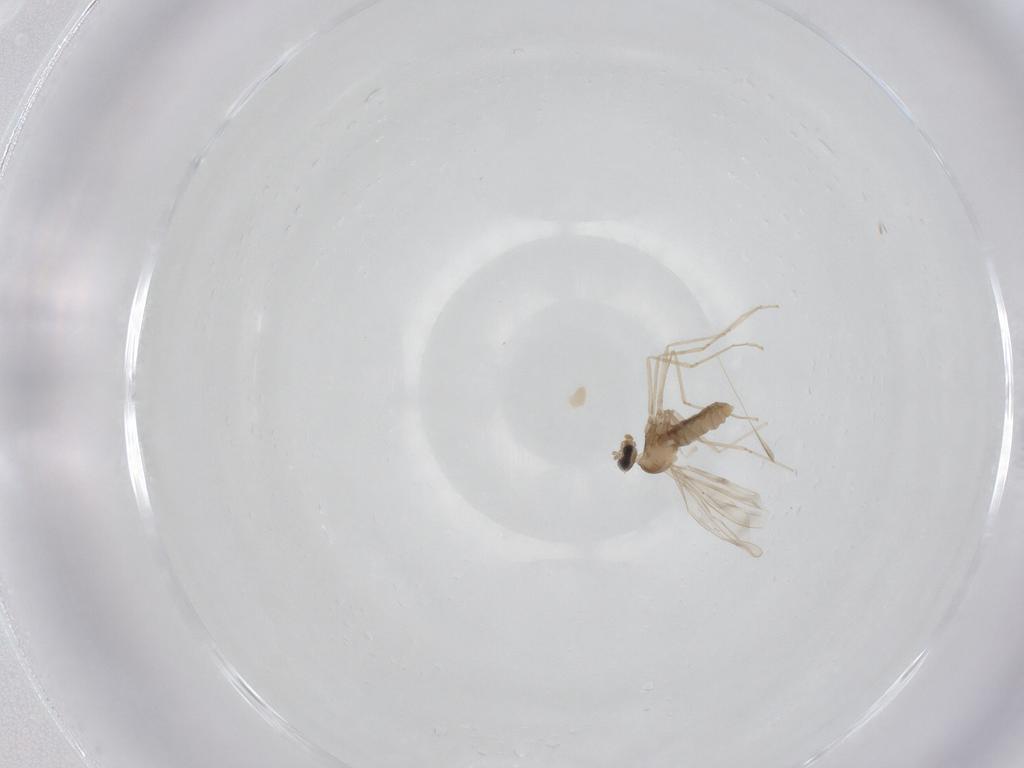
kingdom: Animalia
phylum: Arthropoda
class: Insecta
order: Diptera
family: Cecidomyiidae
